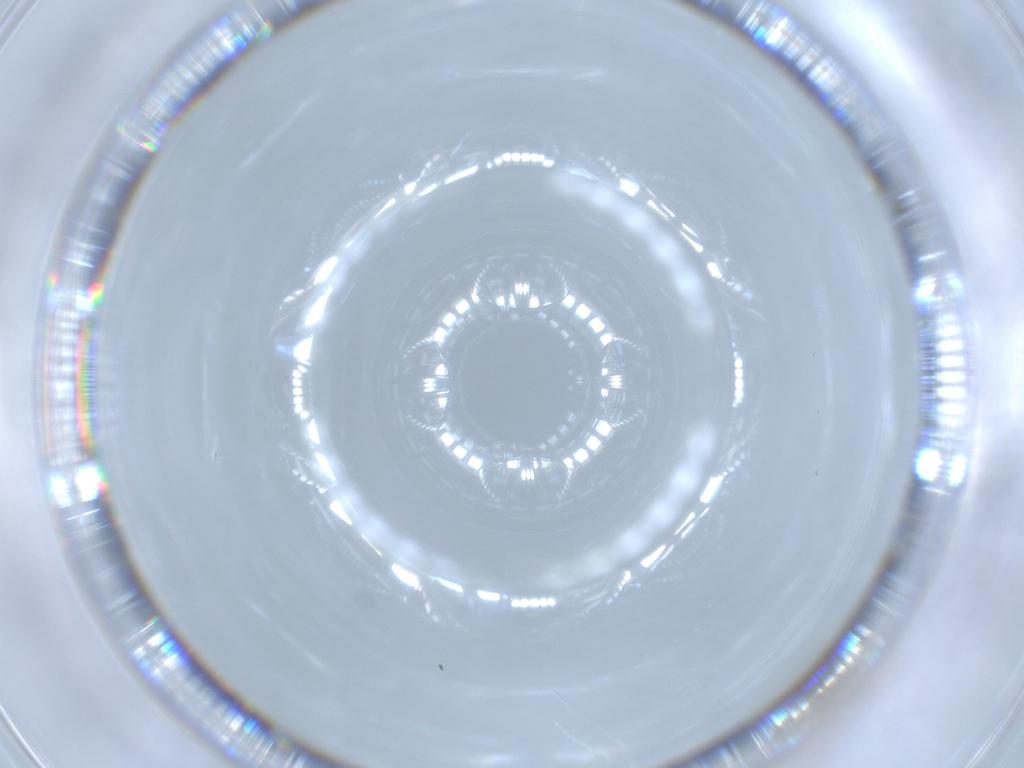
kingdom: Animalia
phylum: Arthropoda
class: Insecta
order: Diptera
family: Cecidomyiidae
